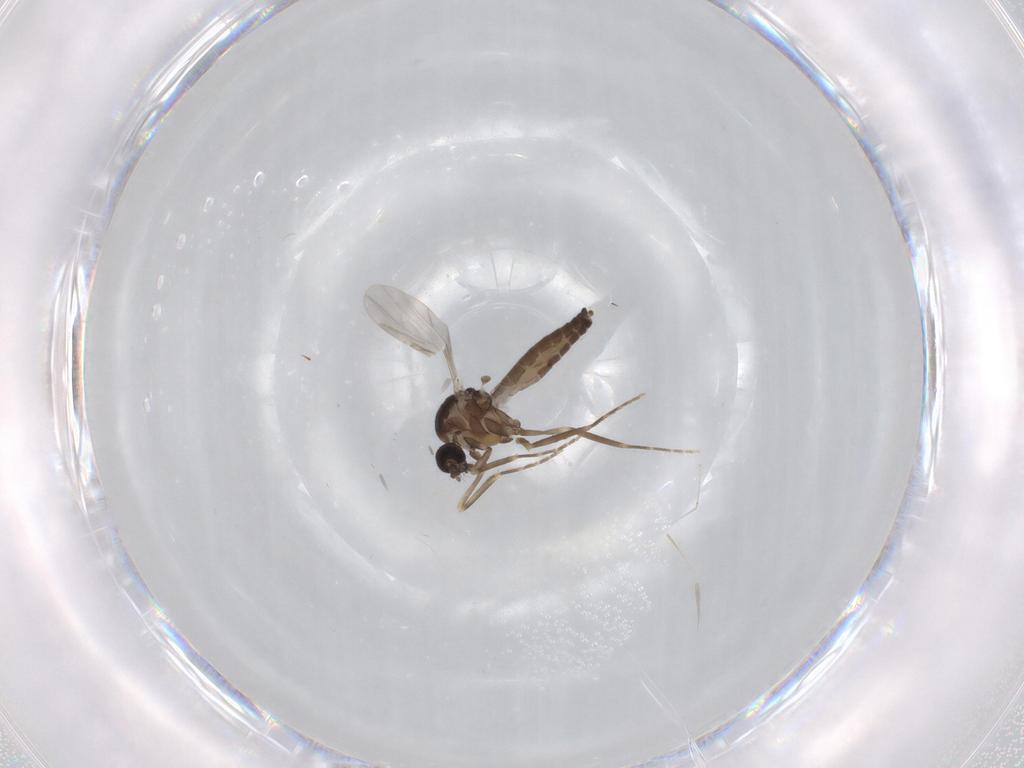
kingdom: Animalia
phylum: Arthropoda
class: Insecta
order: Diptera
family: Ceratopogonidae
